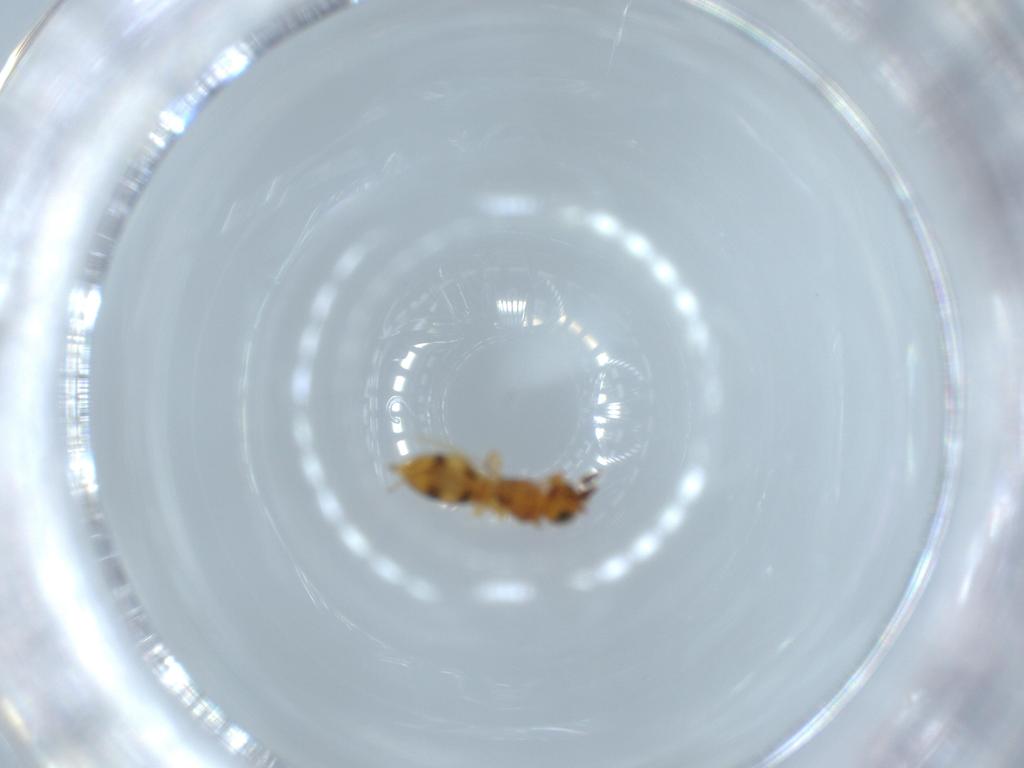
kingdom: Animalia
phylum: Arthropoda
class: Insecta
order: Hymenoptera
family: Scelionidae
